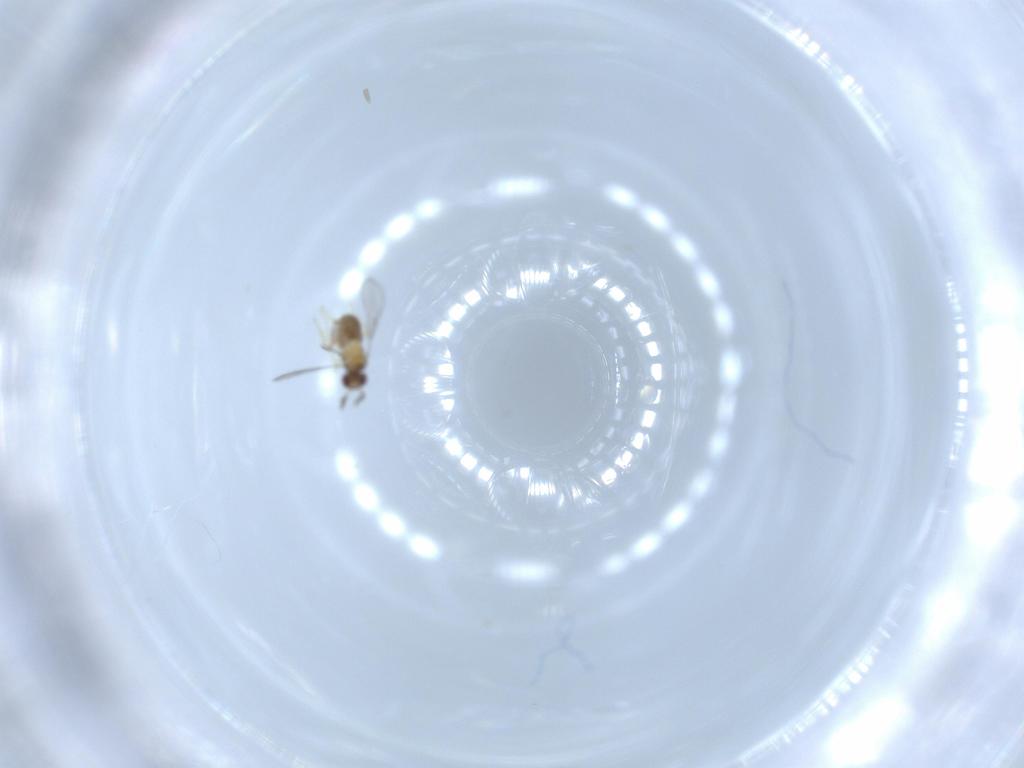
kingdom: Animalia
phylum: Arthropoda
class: Insecta
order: Hymenoptera
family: Trichogrammatidae
